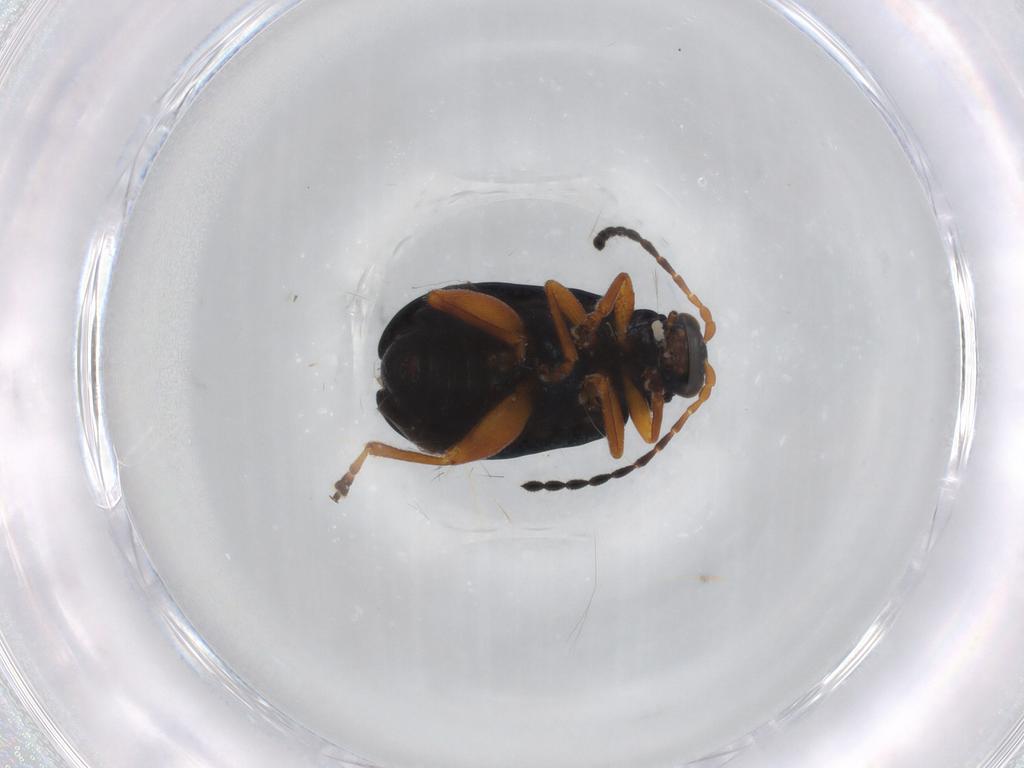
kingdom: Animalia
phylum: Arthropoda
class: Insecta
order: Coleoptera
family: Chrysomelidae
